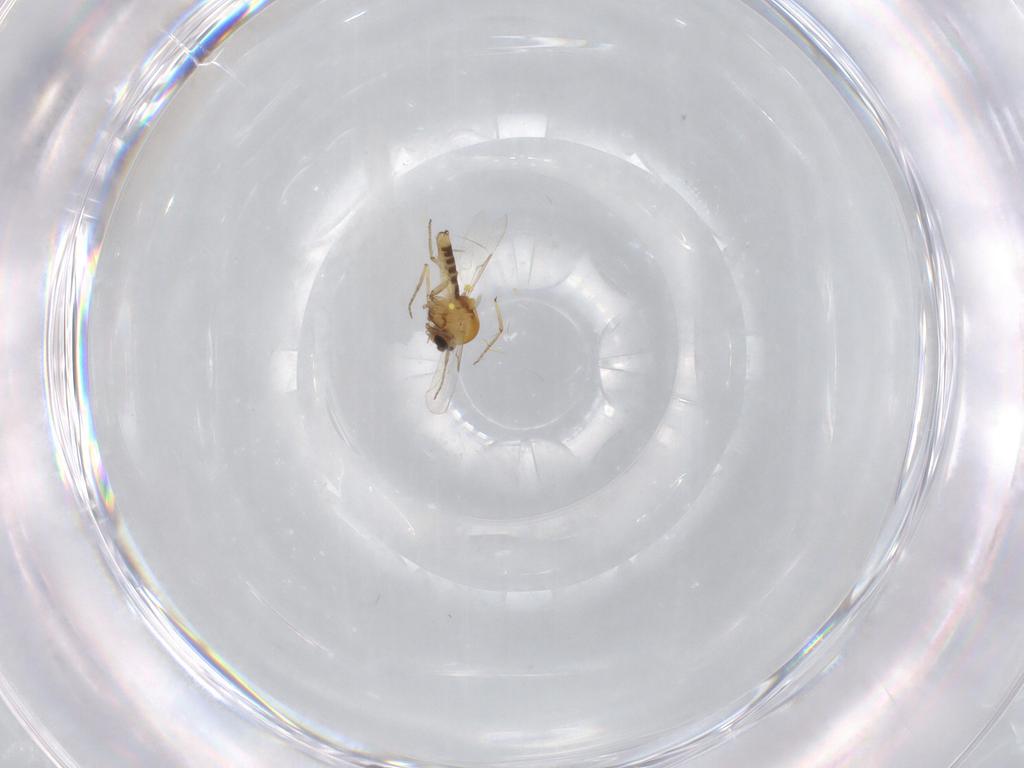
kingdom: Animalia
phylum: Arthropoda
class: Insecta
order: Diptera
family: Ceratopogonidae
